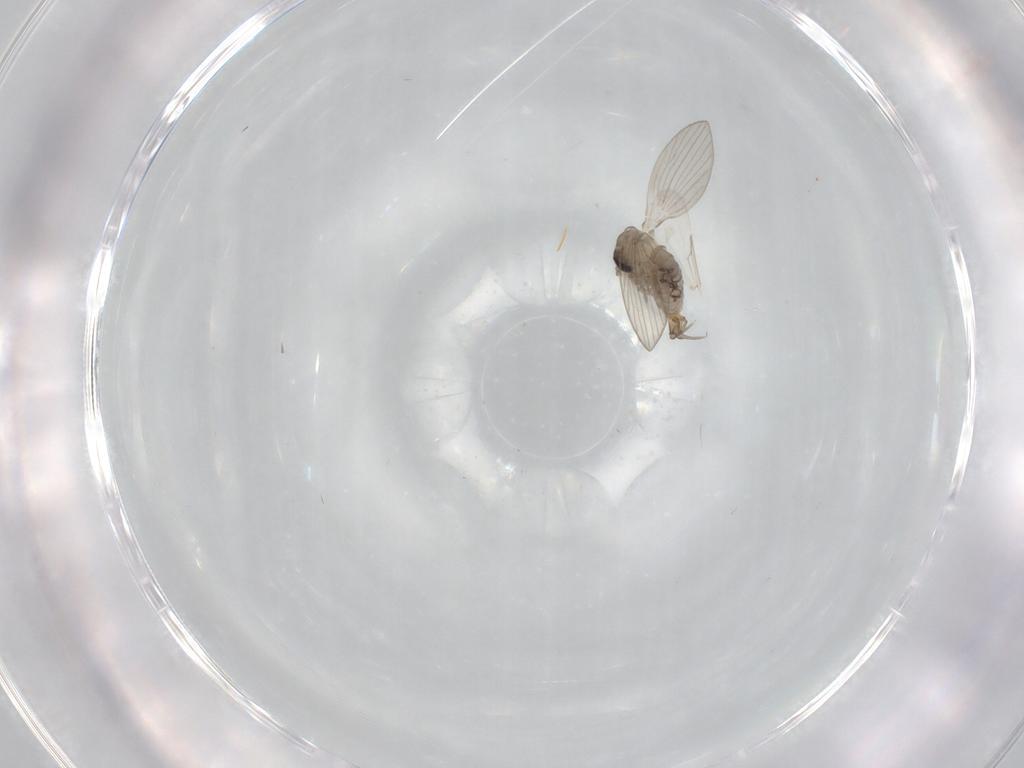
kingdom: Animalia
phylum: Arthropoda
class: Insecta
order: Diptera
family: Psychodidae
